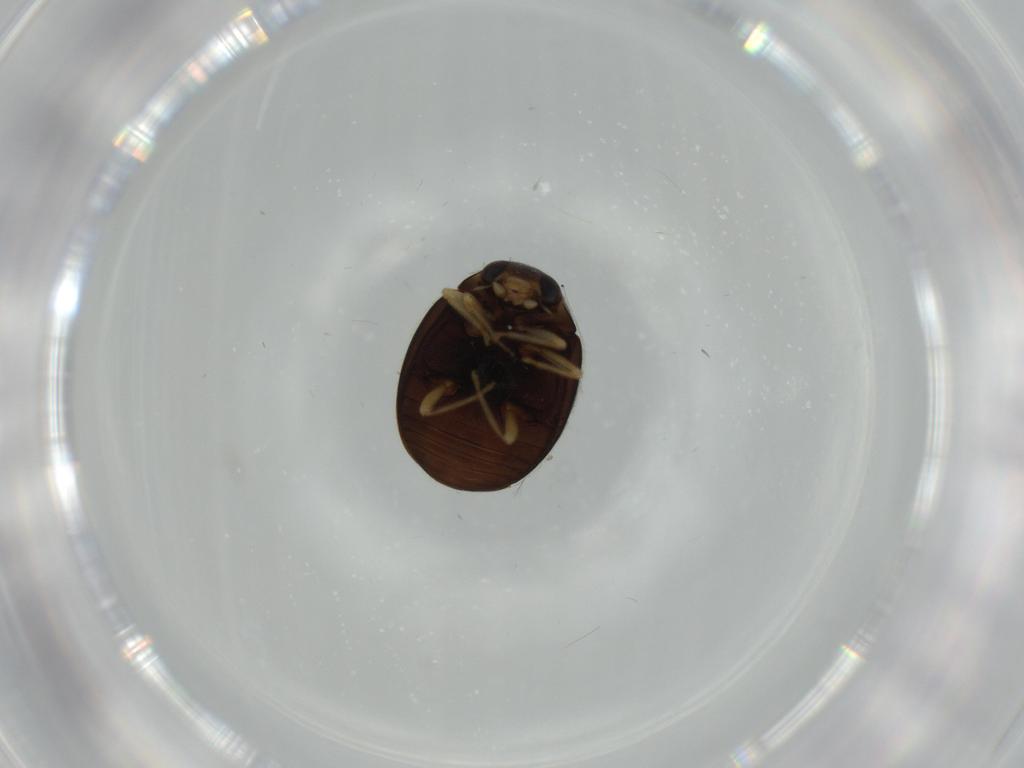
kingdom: Animalia
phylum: Arthropoda
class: Insecta
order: Coleoptera
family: Coccinellidae
